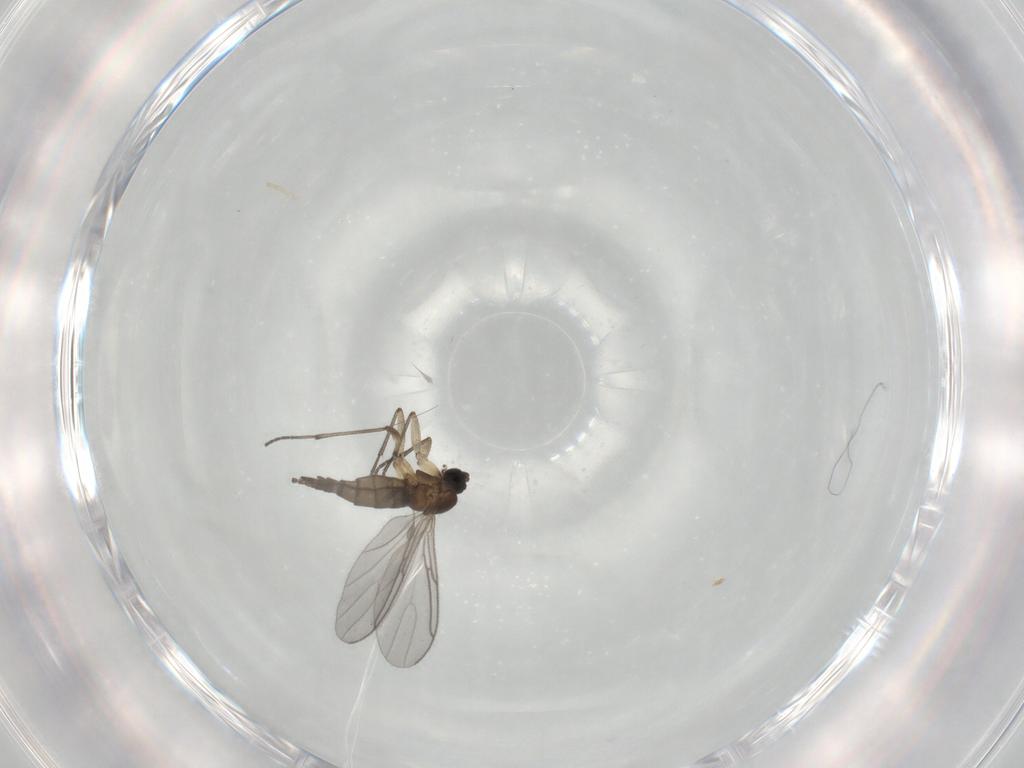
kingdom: Animalia
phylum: Arthropoda
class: Insecta
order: Diptera
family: Sciaridae
